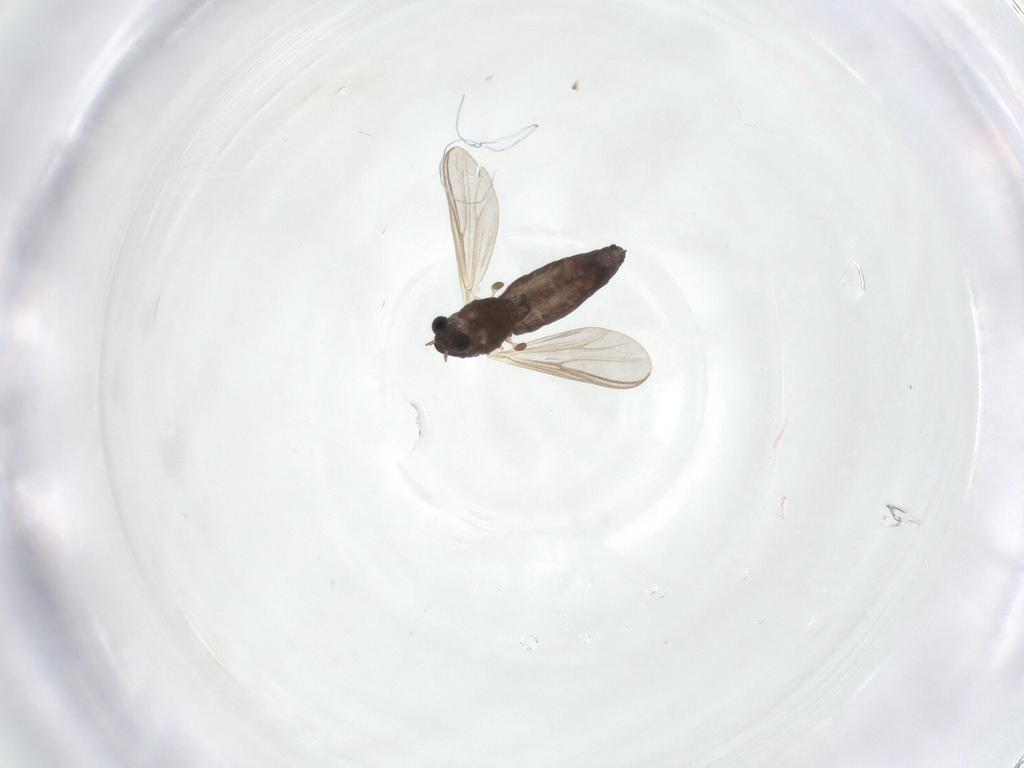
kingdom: Animalia
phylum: Arthropoda
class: Insecta
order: Diptera
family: Chironomidae
